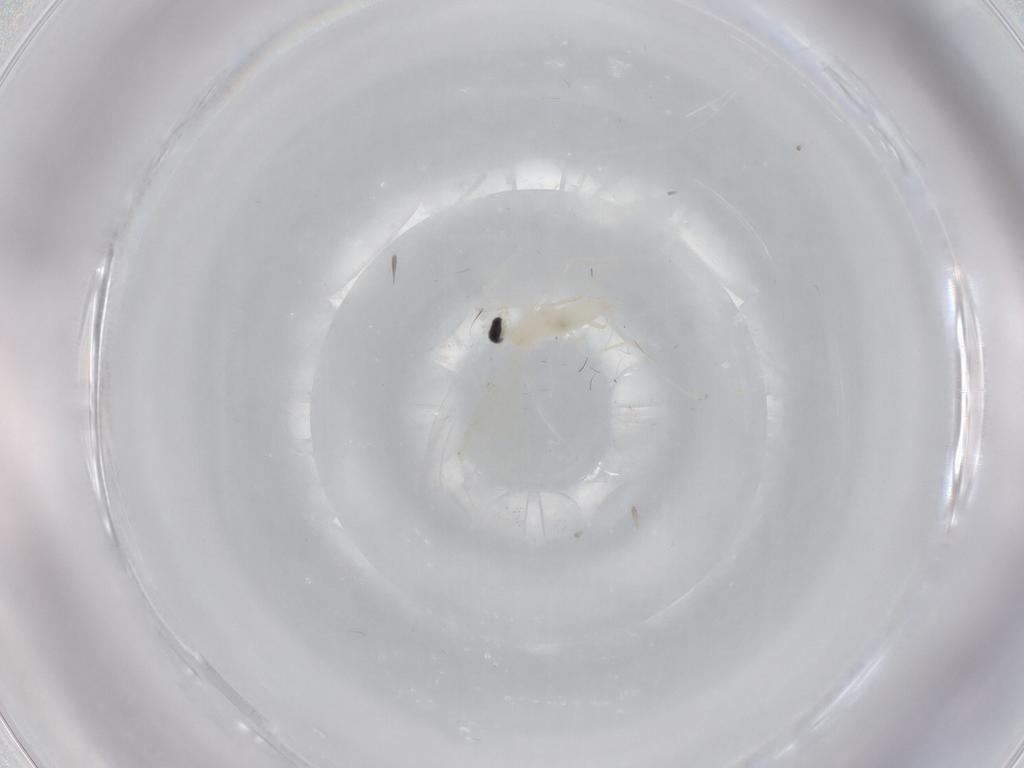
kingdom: Animalia
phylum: Arthropoda
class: Insecta
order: Diptera
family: Cecidomyiidae
